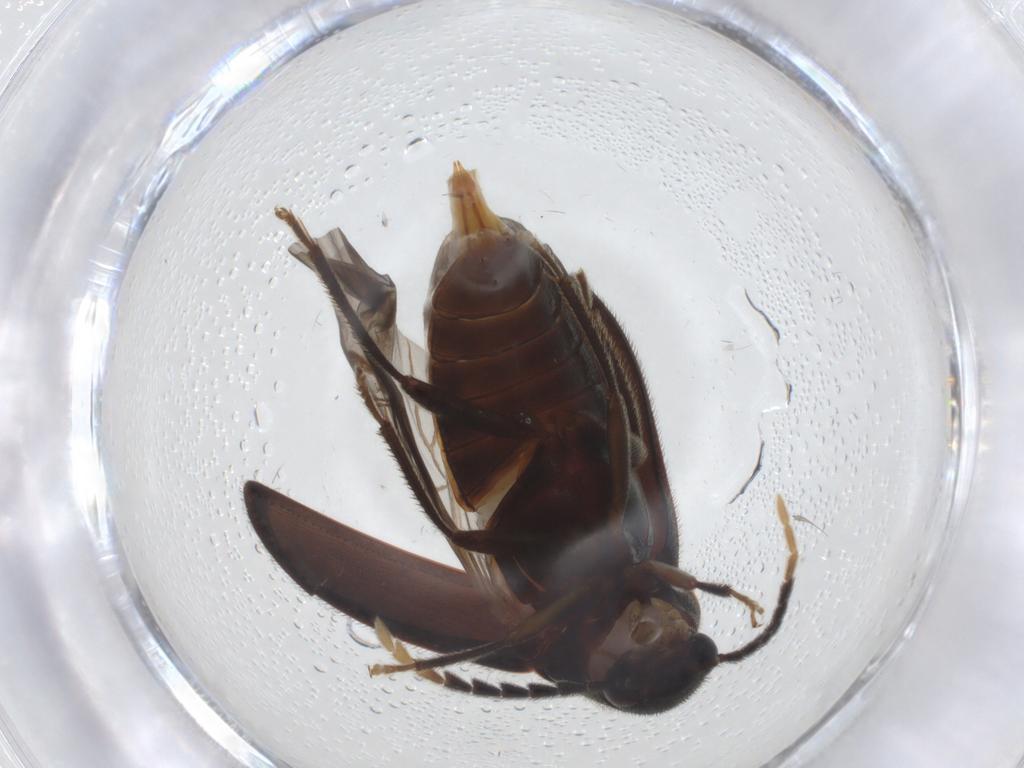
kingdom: Animalia
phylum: Arthropoda
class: Insecta
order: Coleoptera
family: Ptilodactylidae
